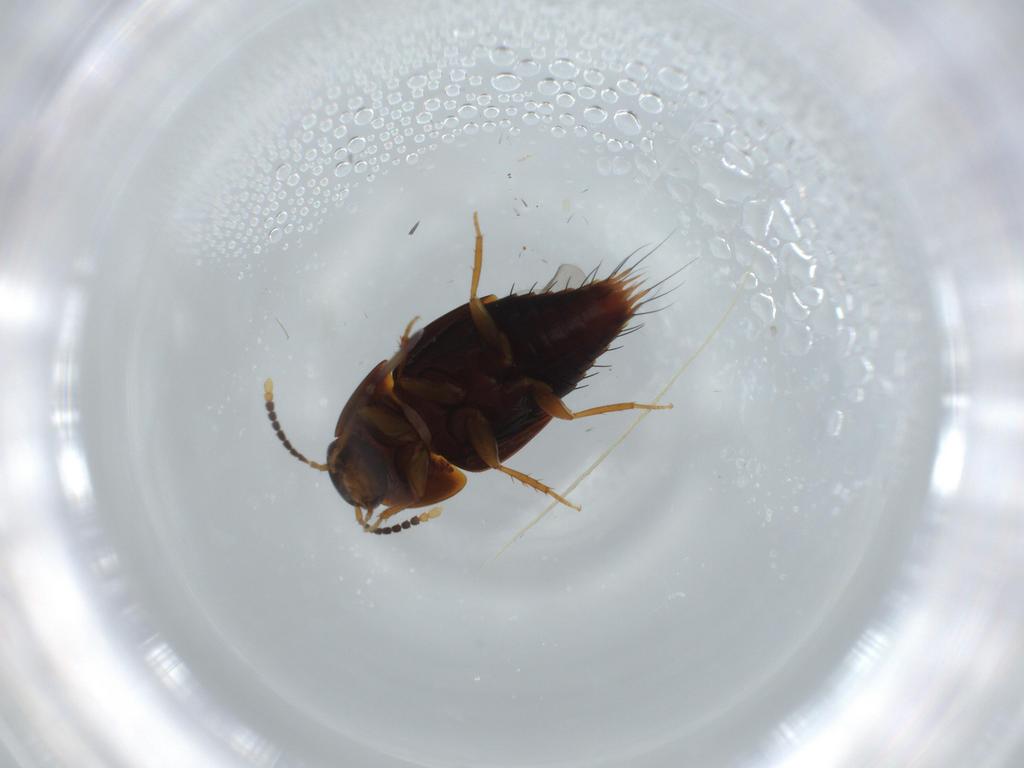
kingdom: Animalia
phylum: Arthropoda
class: Insecta
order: Coleoptera
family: Staphylinidae
